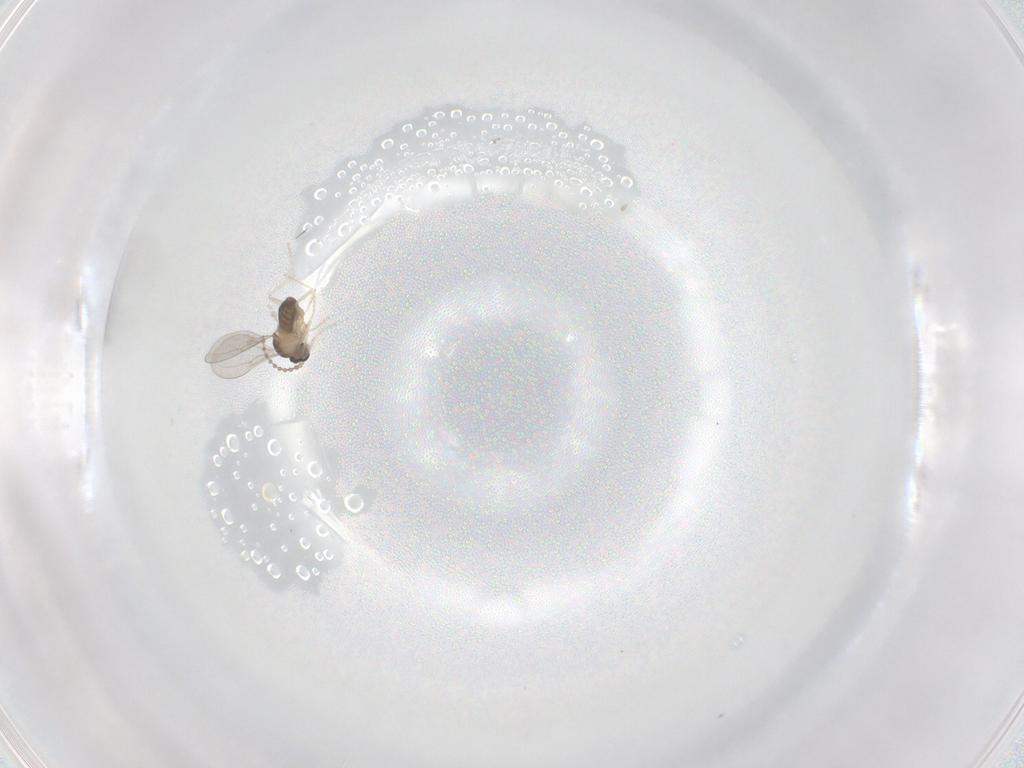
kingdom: Animalia
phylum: Arthropoda
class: Insecta
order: Diptera
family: Cecidomyiidae
